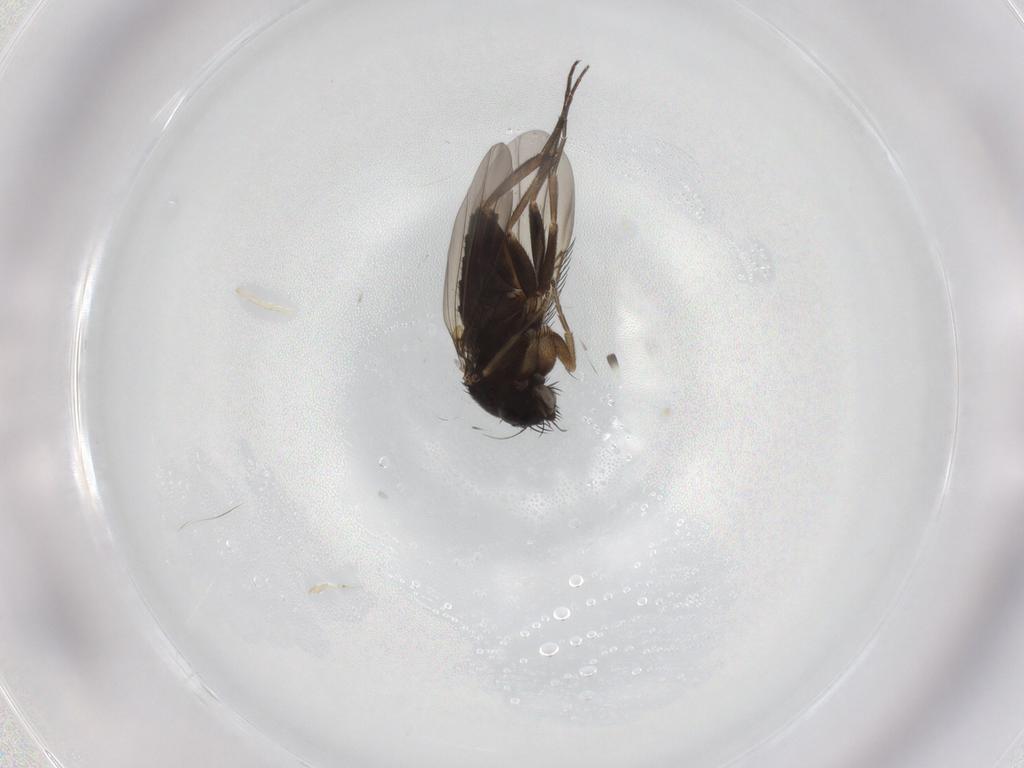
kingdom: Animalia
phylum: Arthropoda
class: Insecta
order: Diptera
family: Phoridae
